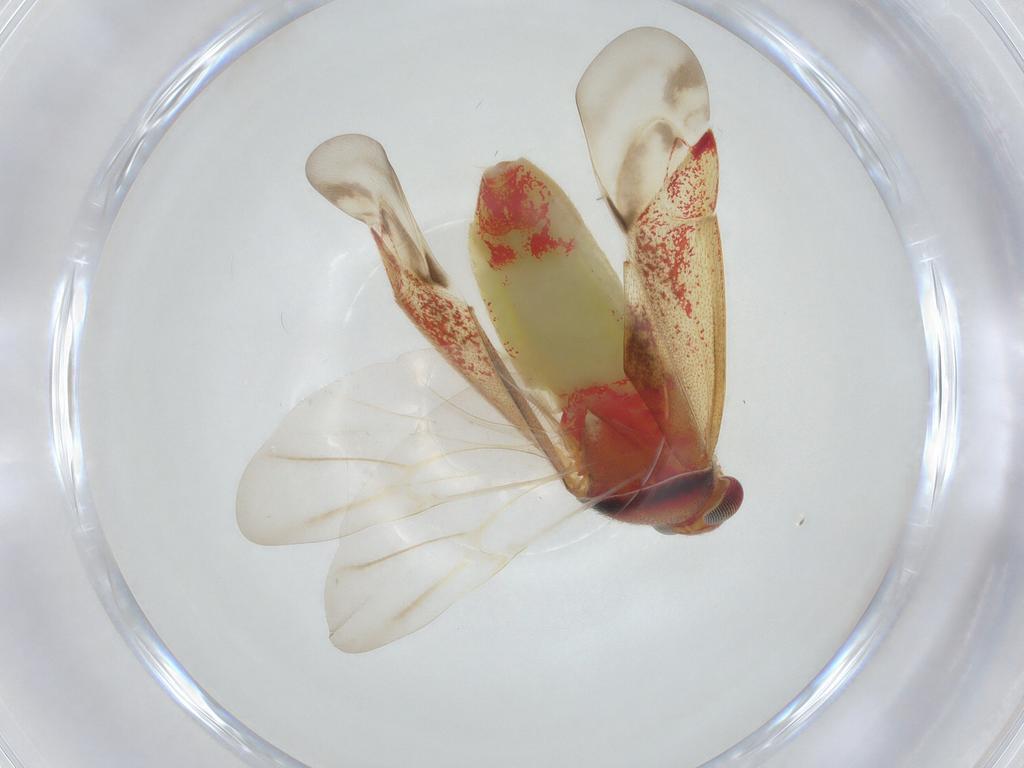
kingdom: Animalia
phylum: Arthropoda
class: Insecta
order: Hemiptera
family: Miridae
